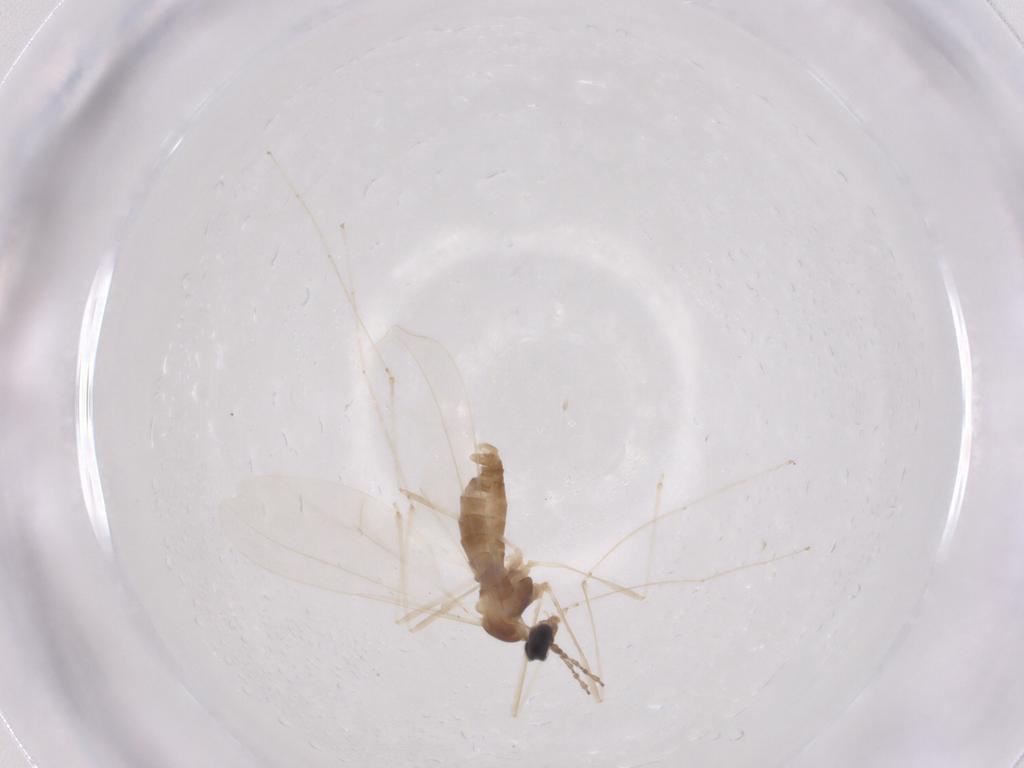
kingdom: Animalia
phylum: Arthropoda
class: Insecta
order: Diptera
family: Cecidomyiidae
